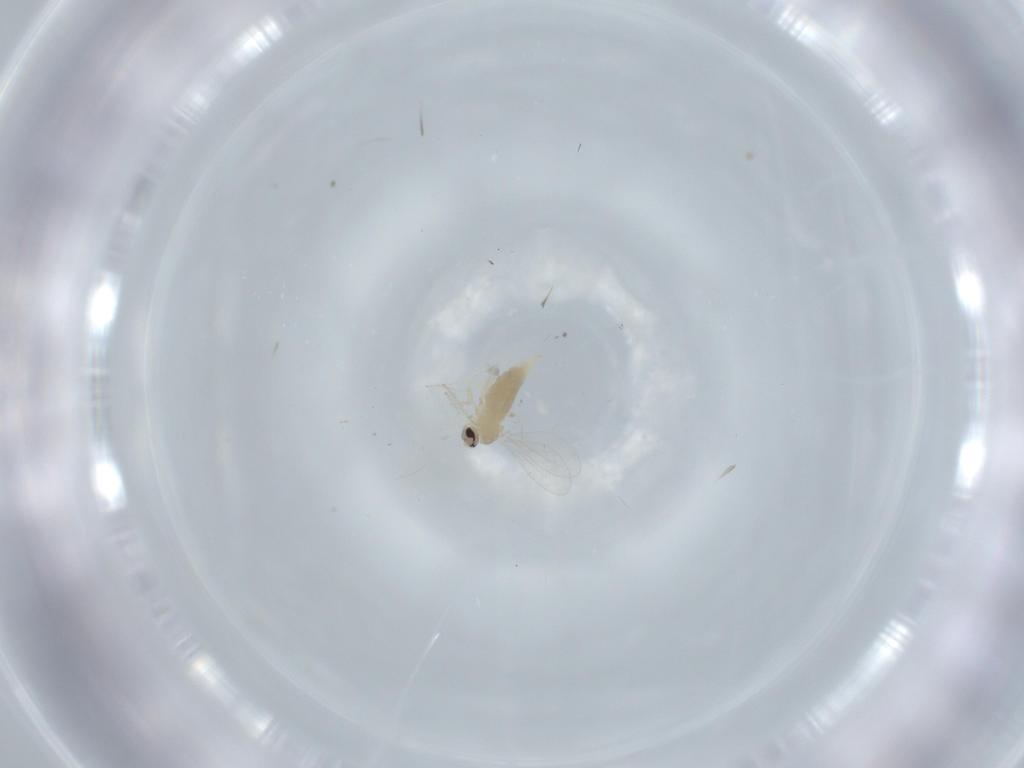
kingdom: Animalia
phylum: Arthropoda
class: Insecta
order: Diptera
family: Cecidomyiidae
